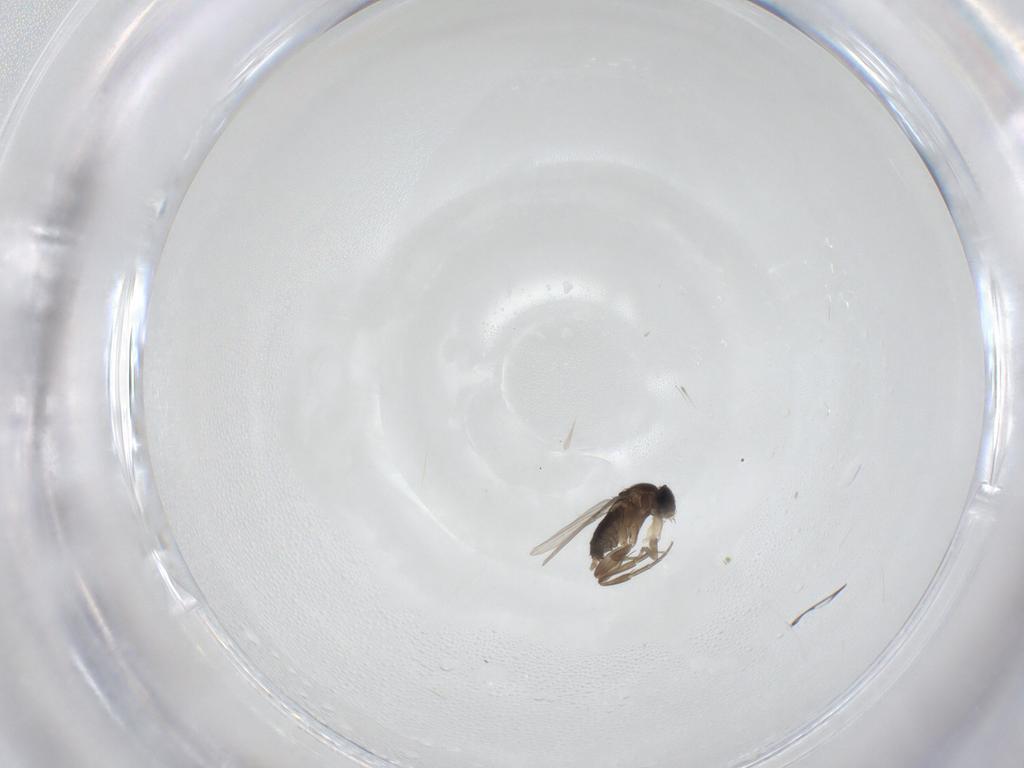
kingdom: Animalia
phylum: Arthropoda
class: Insecta
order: Diptera
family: Phoridae
